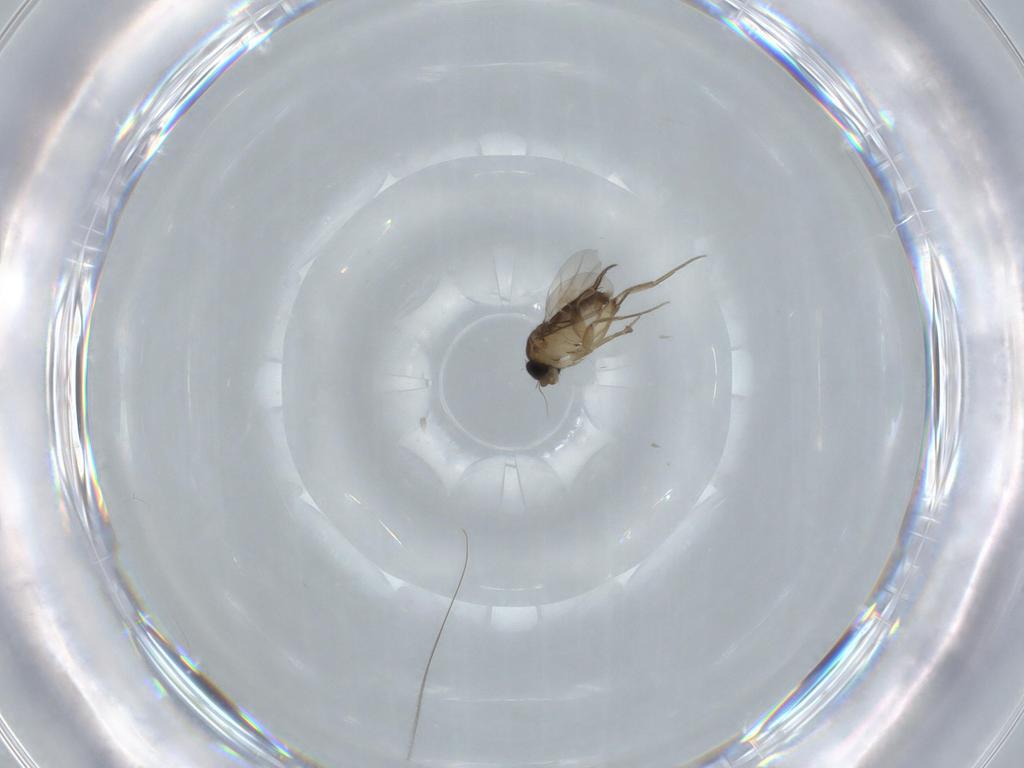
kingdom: Animalia
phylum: Arthropoda
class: Insecta
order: Diptera
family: Phoridae
